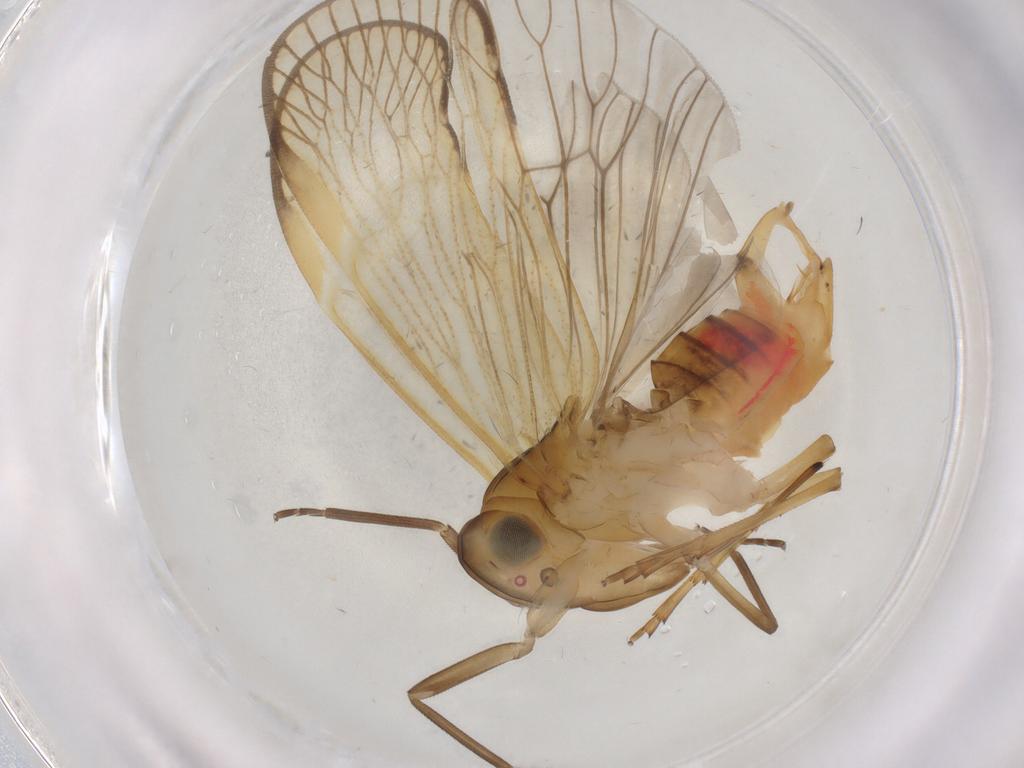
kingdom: Animalia
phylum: Arthropoda
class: Insecta
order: Hemiptera
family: Cixiidae
